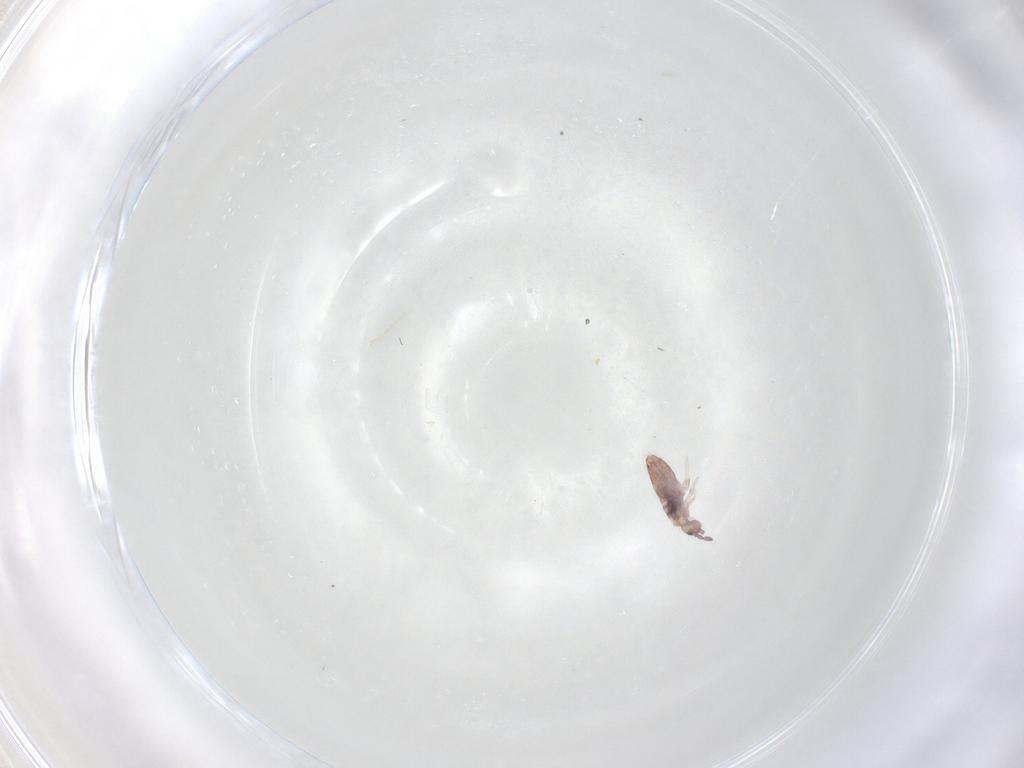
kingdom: Animalia
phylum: Arthropoda
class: Collembola
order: Entomobryomorpha
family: Entomobryidae
